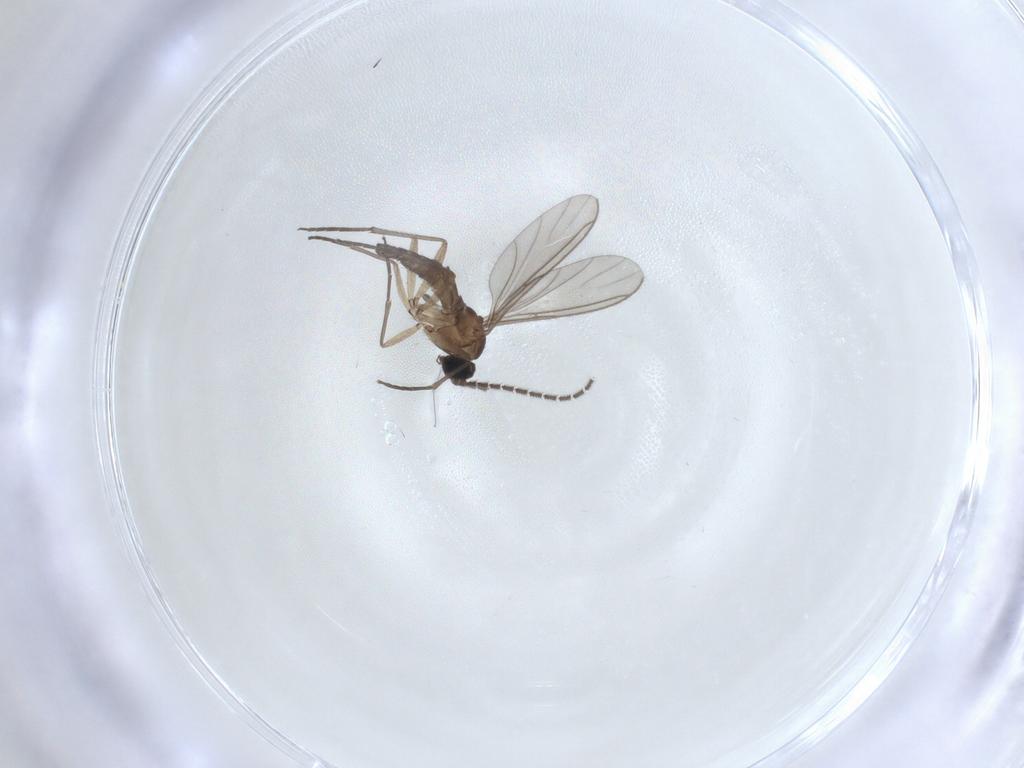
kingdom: Animalia
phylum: Arthropoda
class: Insecta
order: Diptera
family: Sciaridae
